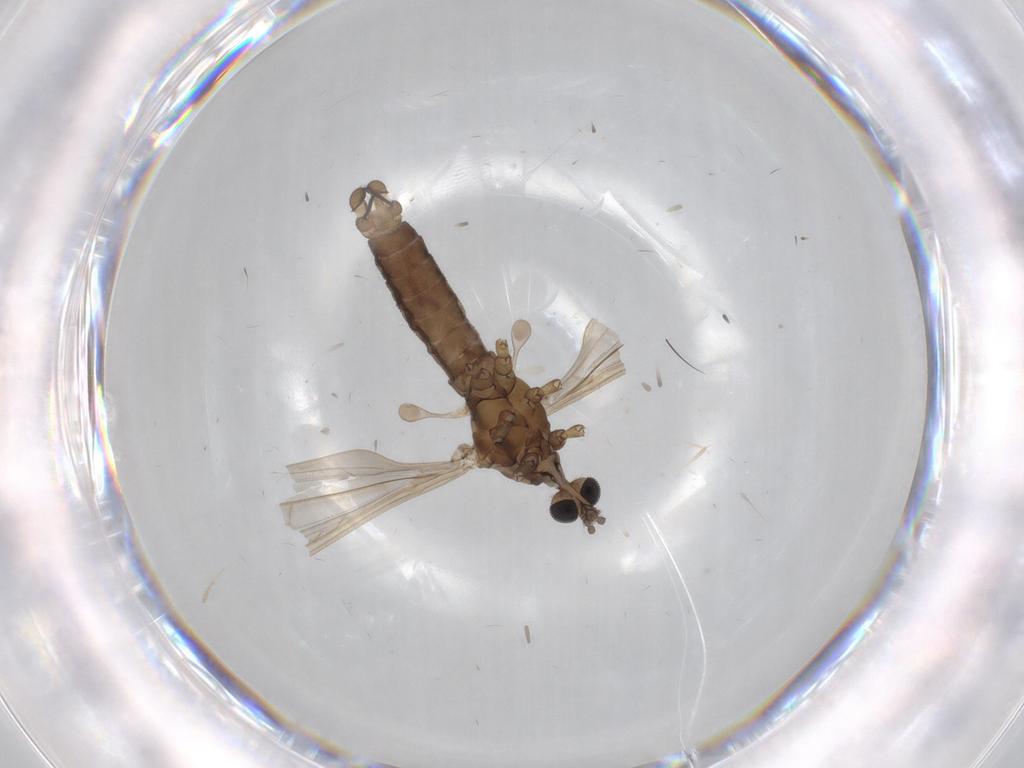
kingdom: Animalia
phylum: Arthropoda
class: Insecta
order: Diptera
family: Limoniidae
